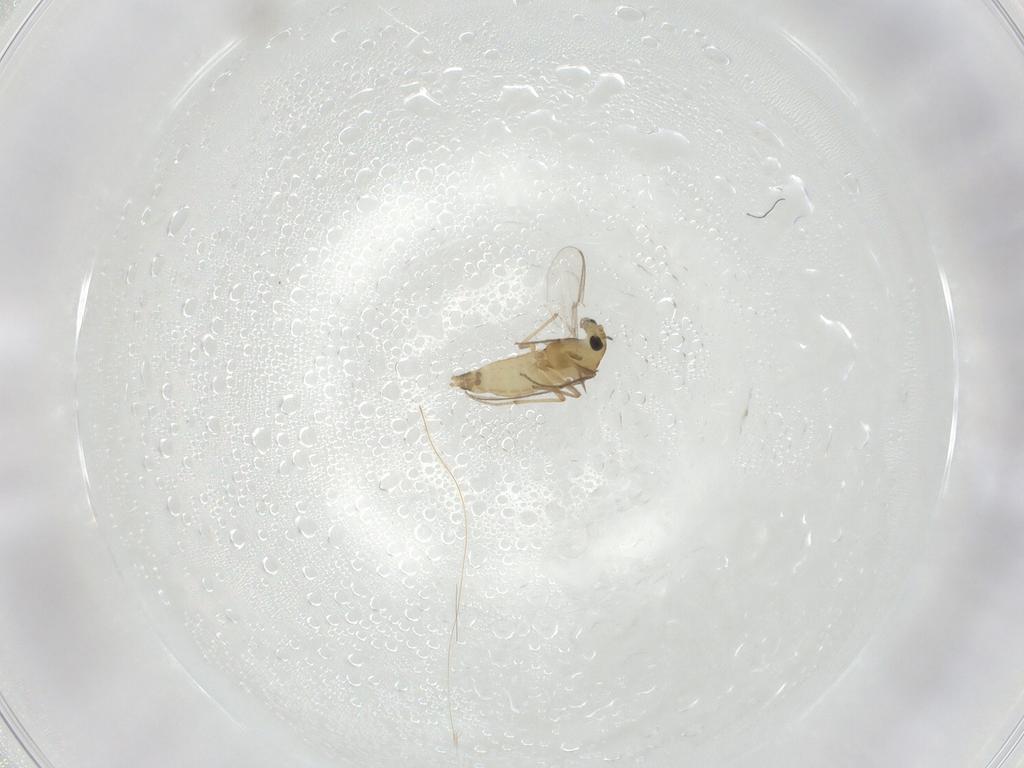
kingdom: Animalia
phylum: Arthropoda
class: Insecta
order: Diptera
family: Cecidomyiidae
